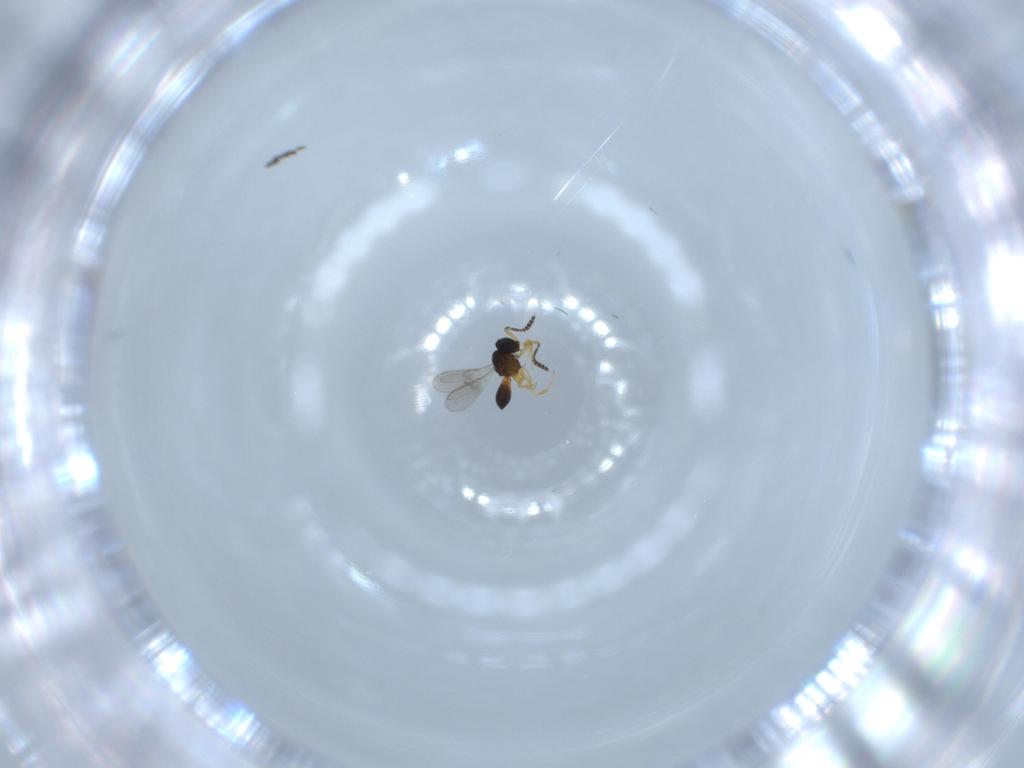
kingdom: Animalia
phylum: Arthropoda
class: Insecta
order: Hymenoptera
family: Scelionidae
